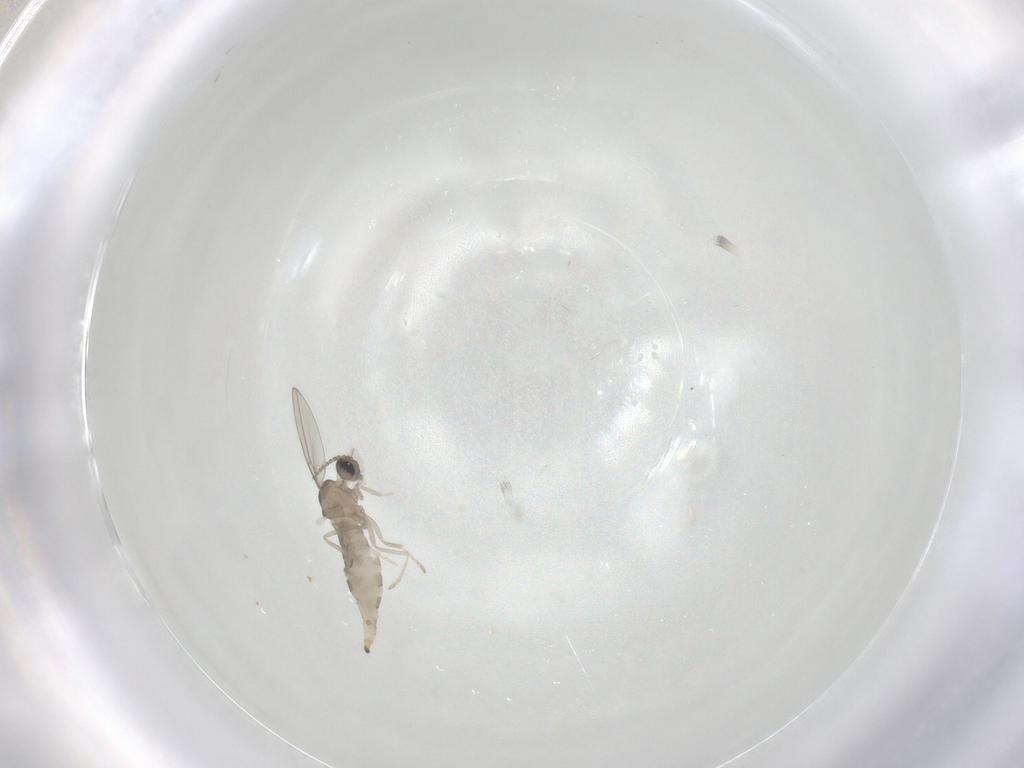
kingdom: Animalia
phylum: Arthropoda
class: Insecta
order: Diptera
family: Cecidomyiidae
